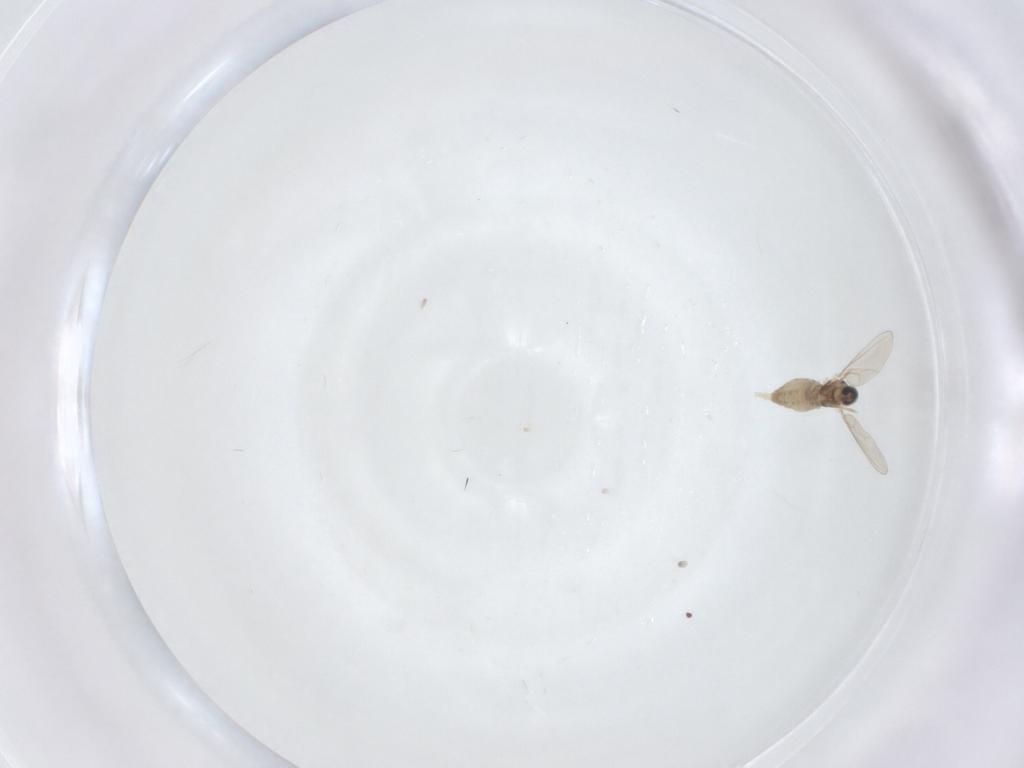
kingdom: Animalia
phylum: Arthropoda
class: Insecta
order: Diptera
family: Cecidomyiidae
